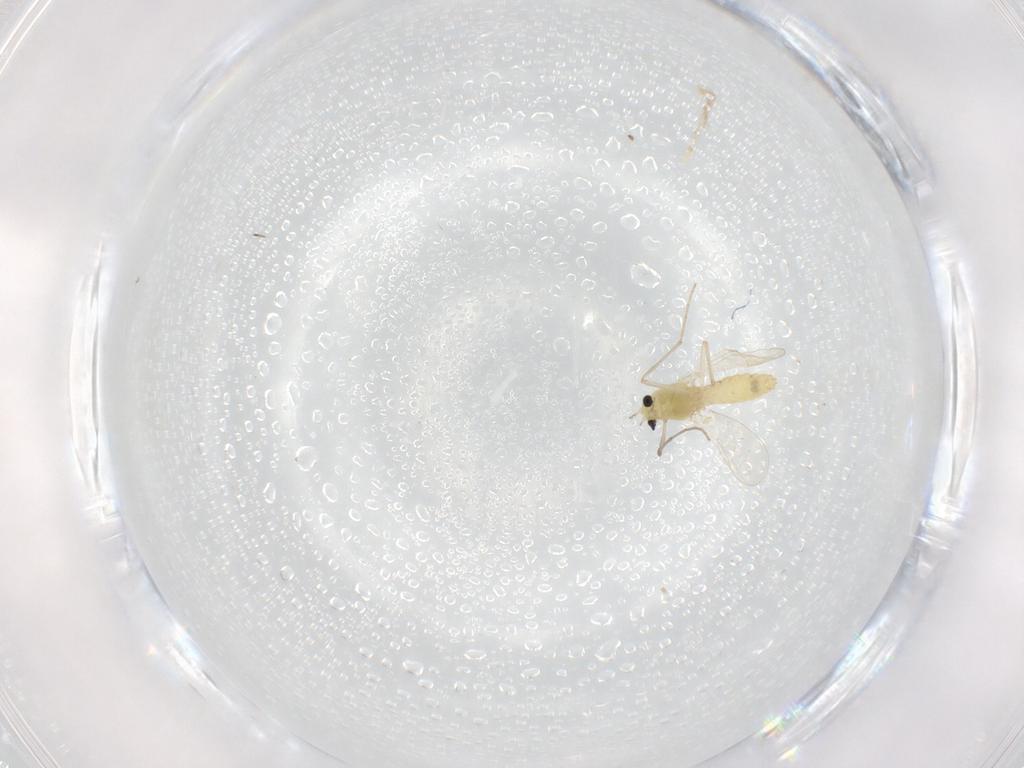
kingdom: Animalia
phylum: Arthropoda
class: Insecta
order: Diptera
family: Chironomidae
